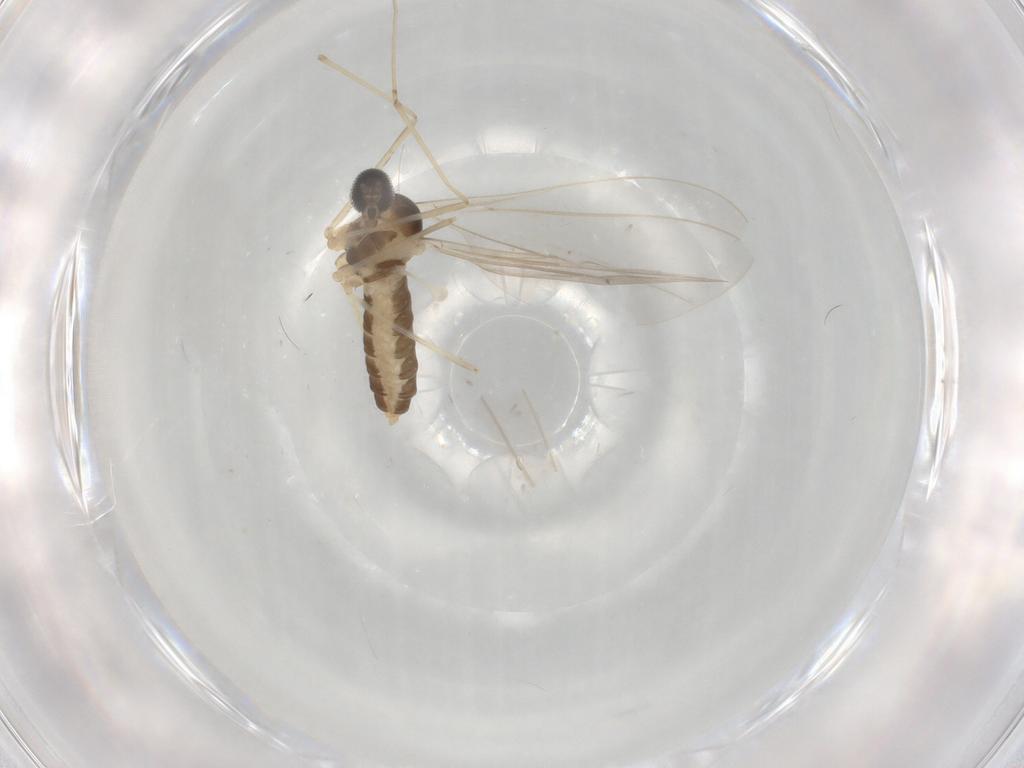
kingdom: Animalia
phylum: Arthropoda
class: Insecta
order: Diptera
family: Cecidomyiidae
